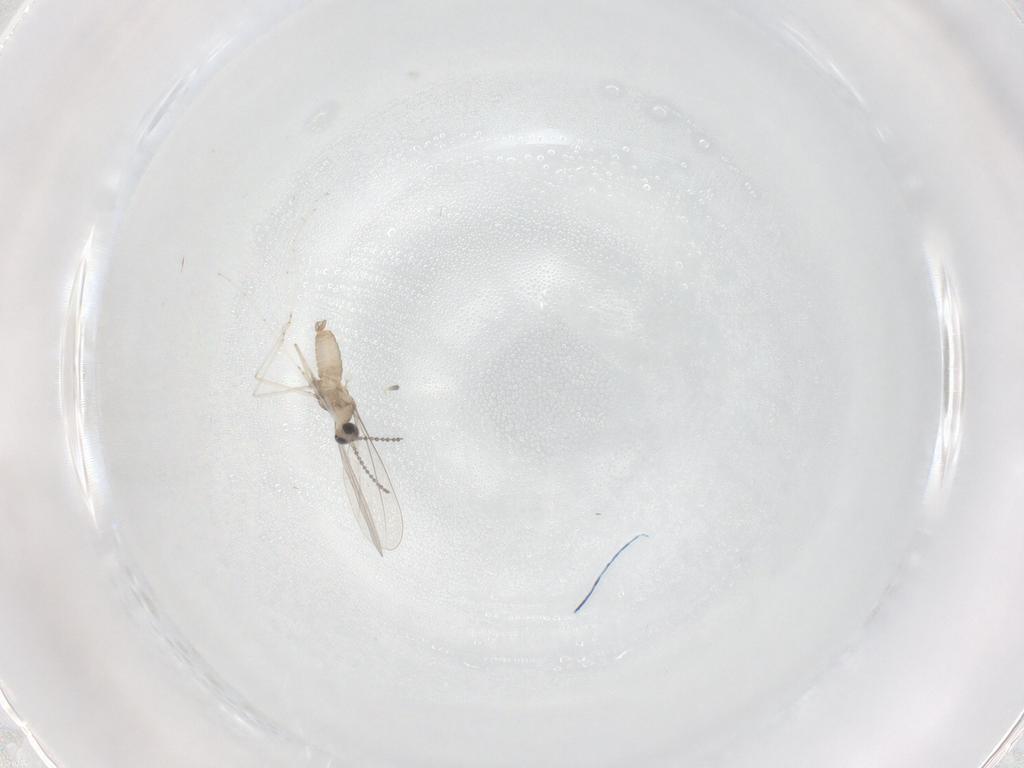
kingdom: Animalia
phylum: Arthropoda
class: Insecta
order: Diptera
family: Cecidomyiidae
